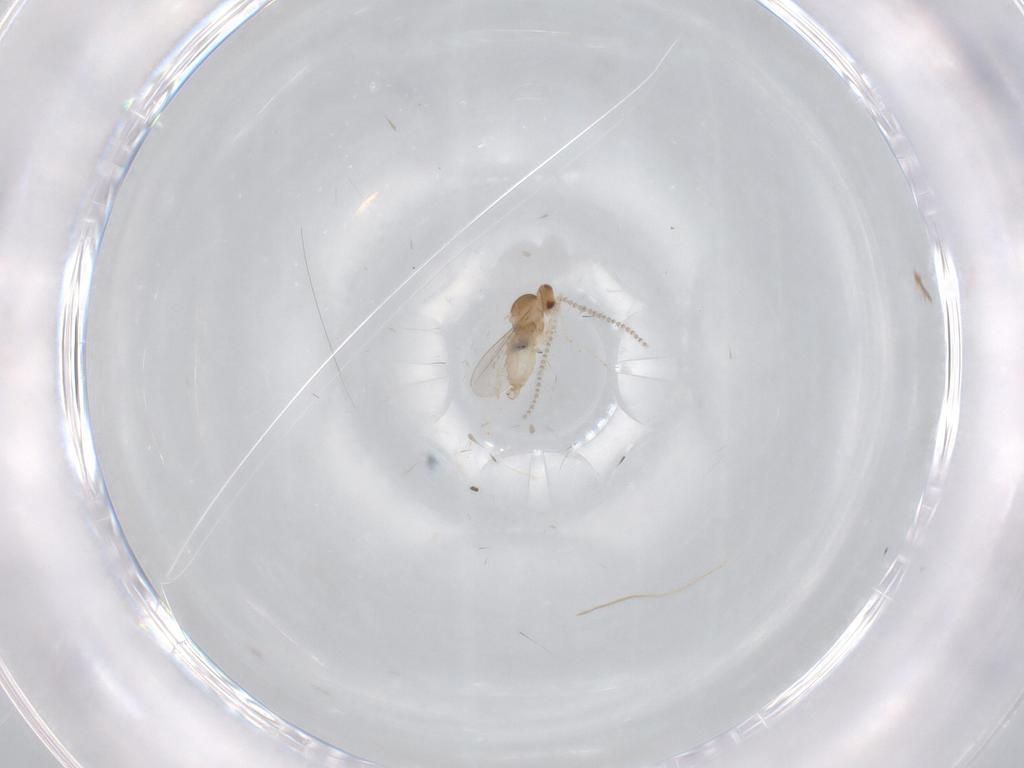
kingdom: Animalia
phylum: Arthropoda
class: Insecta
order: Diptera
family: Cecidomyiidae
